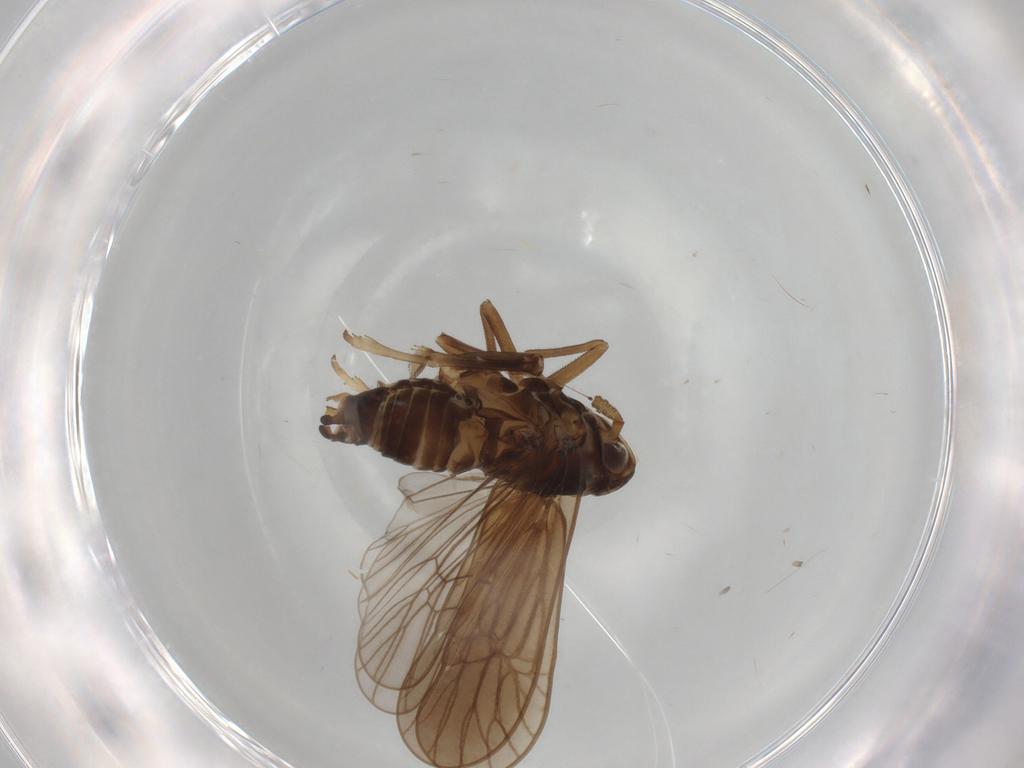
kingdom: Animalia
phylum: Arthropoda
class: Insecta
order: Hemiptera
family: Delphacidae
